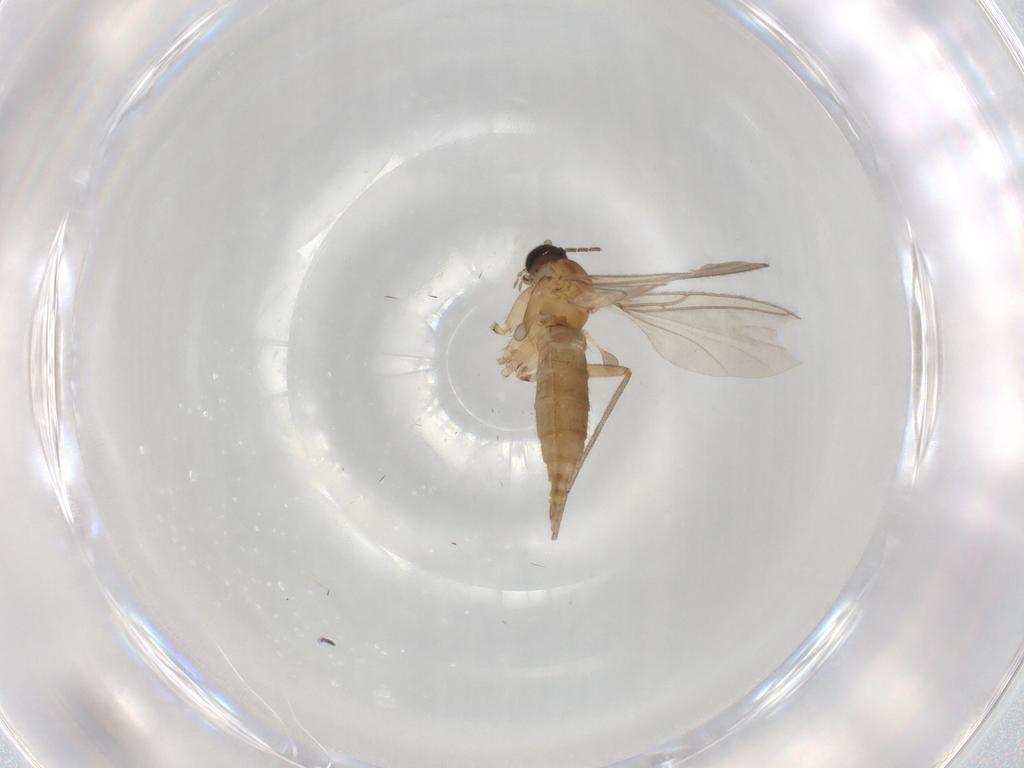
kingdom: Animalia
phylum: Arthropoda
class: Insecta
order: Diptera
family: Sciaridae
